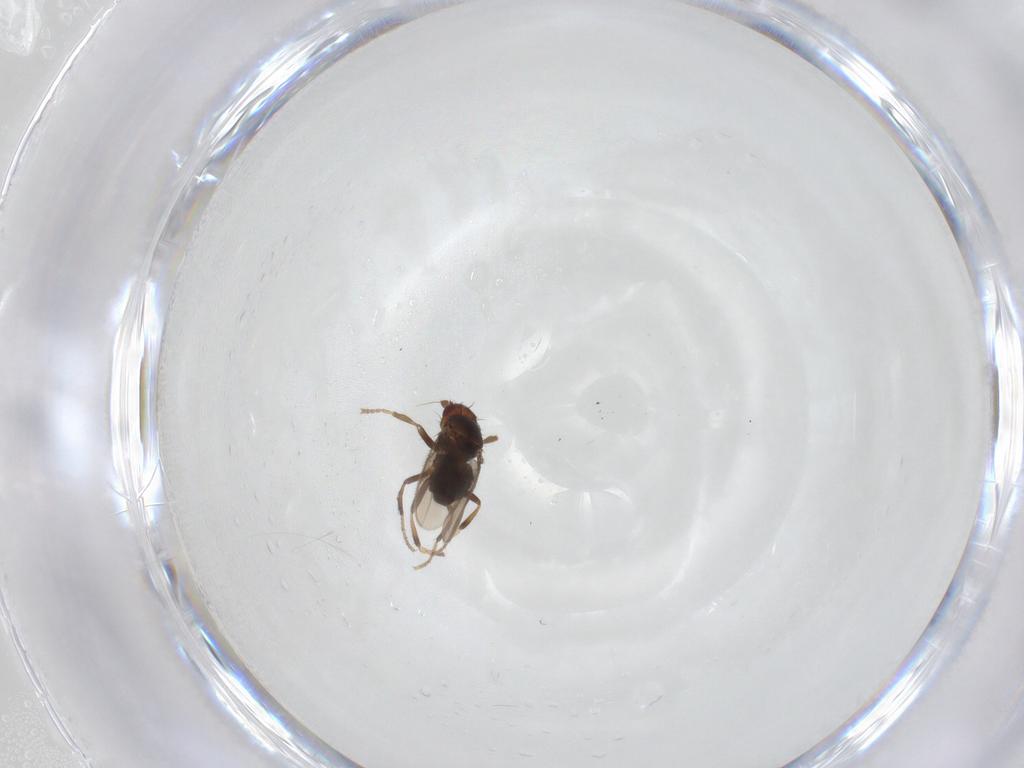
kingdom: Animalia
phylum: Arthropoda
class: Insecta
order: Diptera
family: Sphaeroceridae
